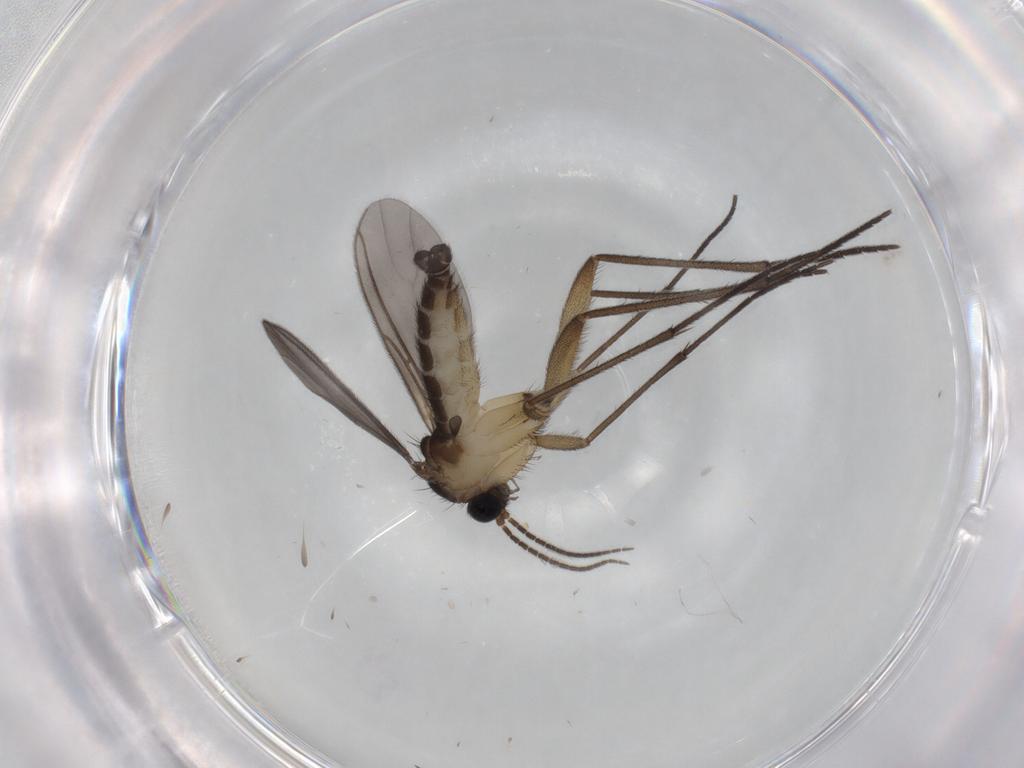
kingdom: Animalia
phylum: Arthropoda
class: Insecta
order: Diptera
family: Sciaridae
